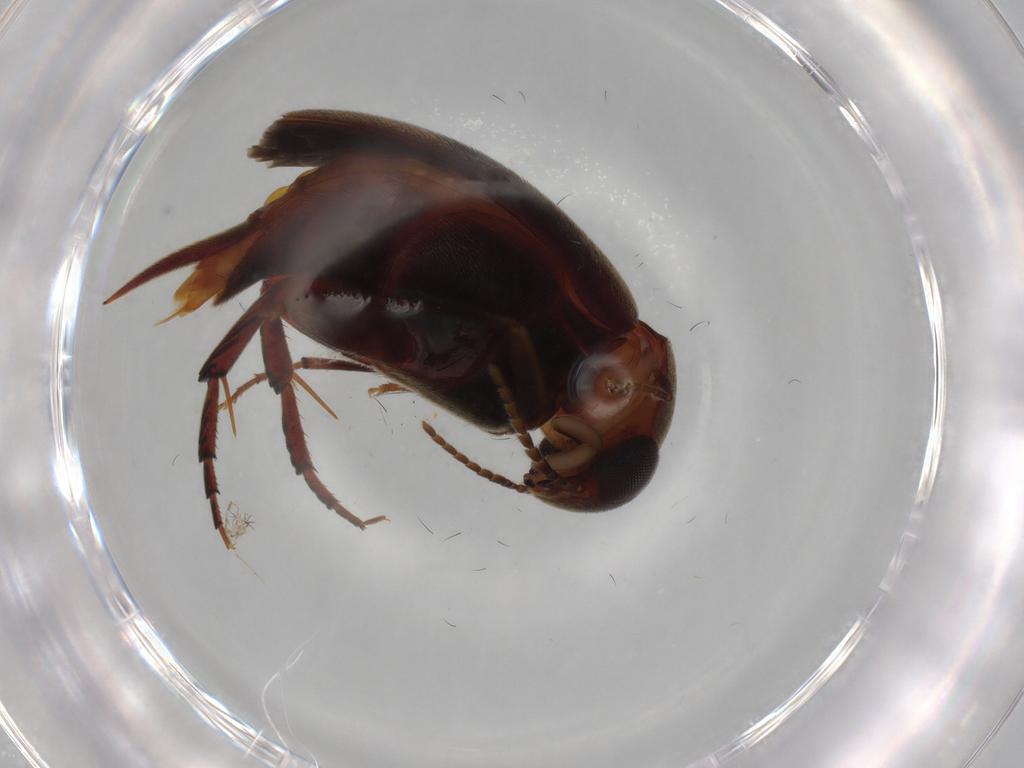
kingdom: Animalia
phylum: Arthropoda
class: Insecta
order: Coleoptera
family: Mordellidae
